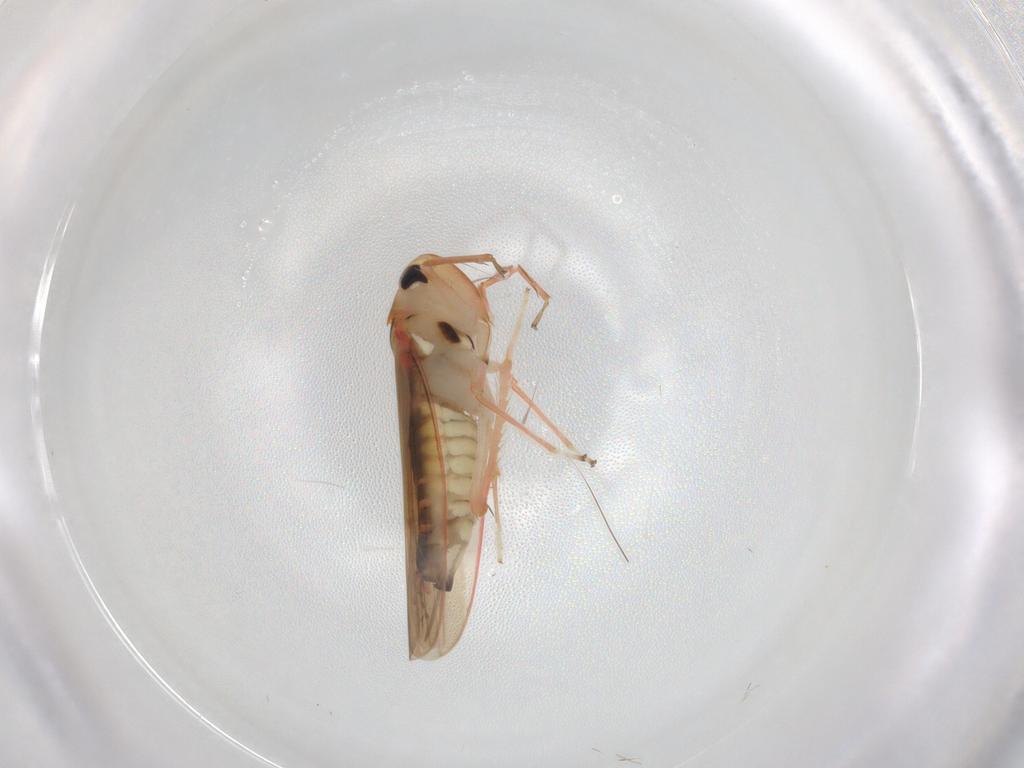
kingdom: Animalia
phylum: Arthropoda
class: Insecta
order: Hemiptera
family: Cicadellidae
